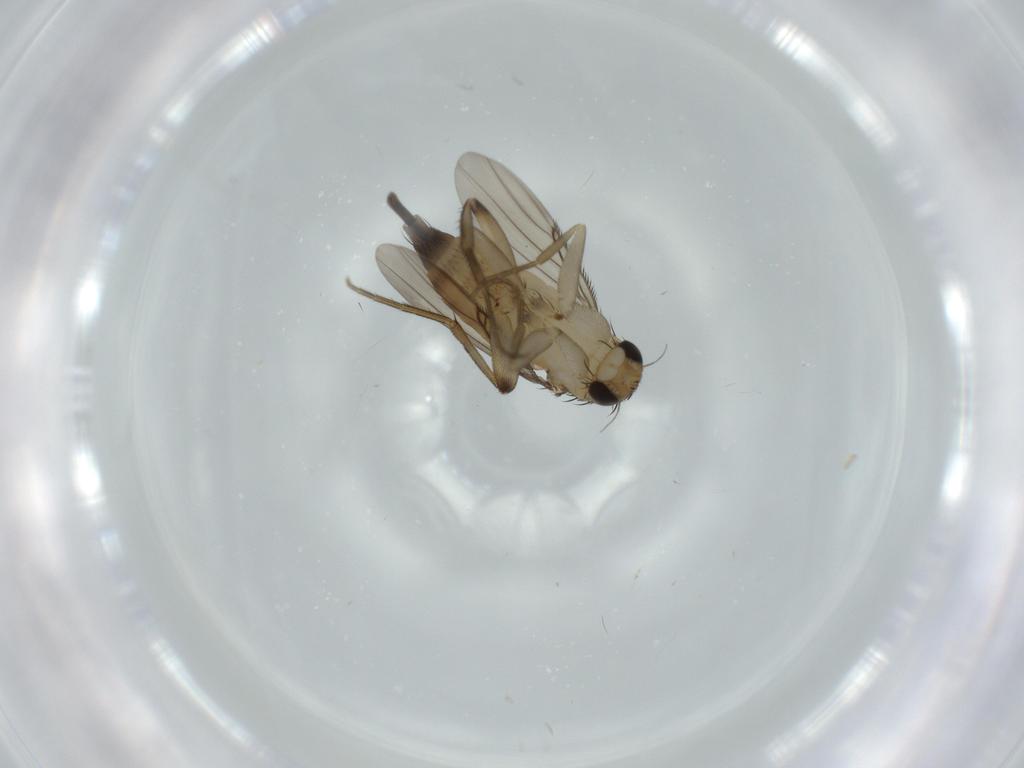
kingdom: Animalia
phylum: Arthropoda
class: Insecta
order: Diptera
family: Phoridae
